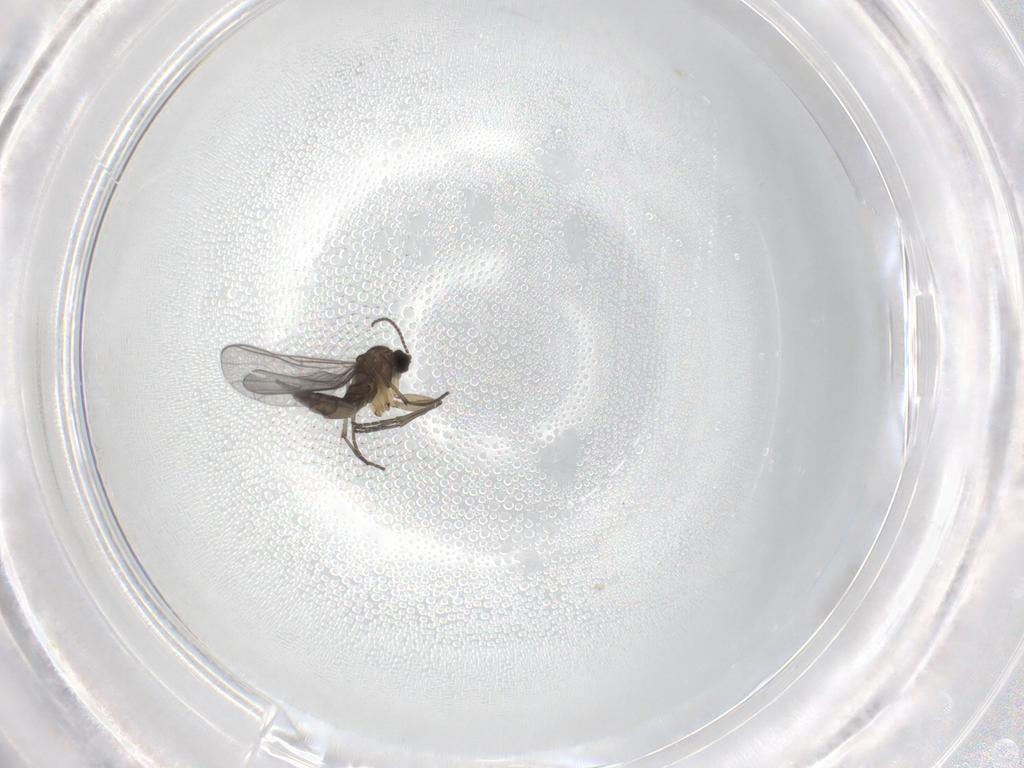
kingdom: Animalia
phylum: Arthropoda
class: Insecta
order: Diptera
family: Sciaridae
